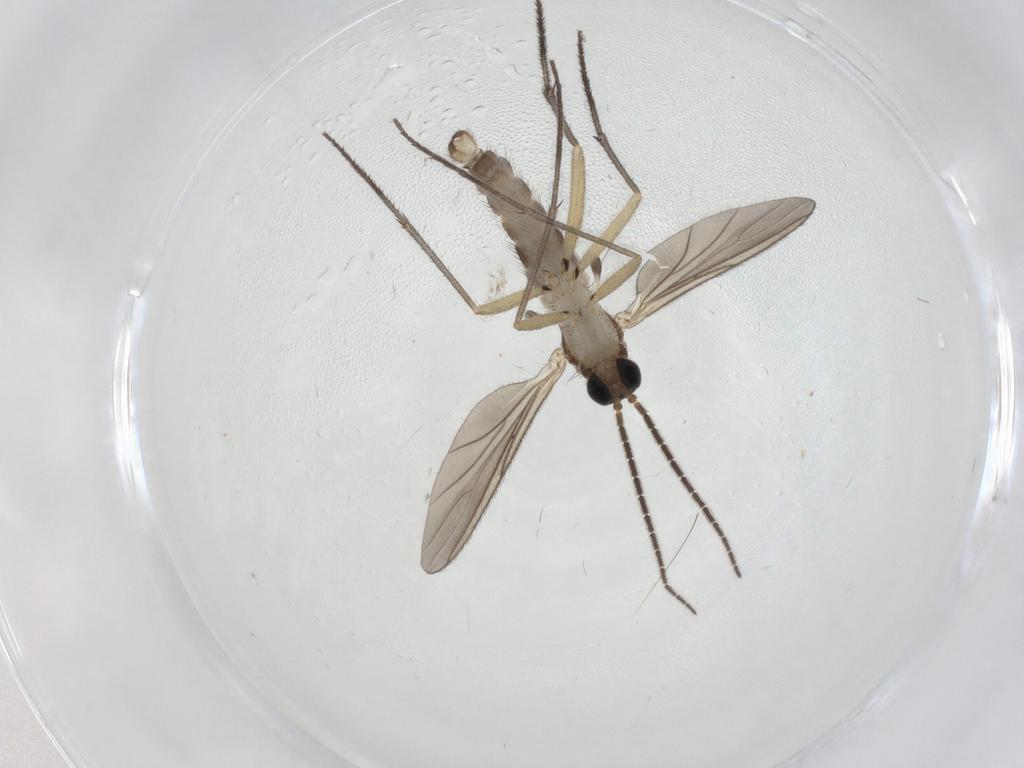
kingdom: Animalia
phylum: Arthropoda
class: Insecta
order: Diptera
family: Sciaridae
